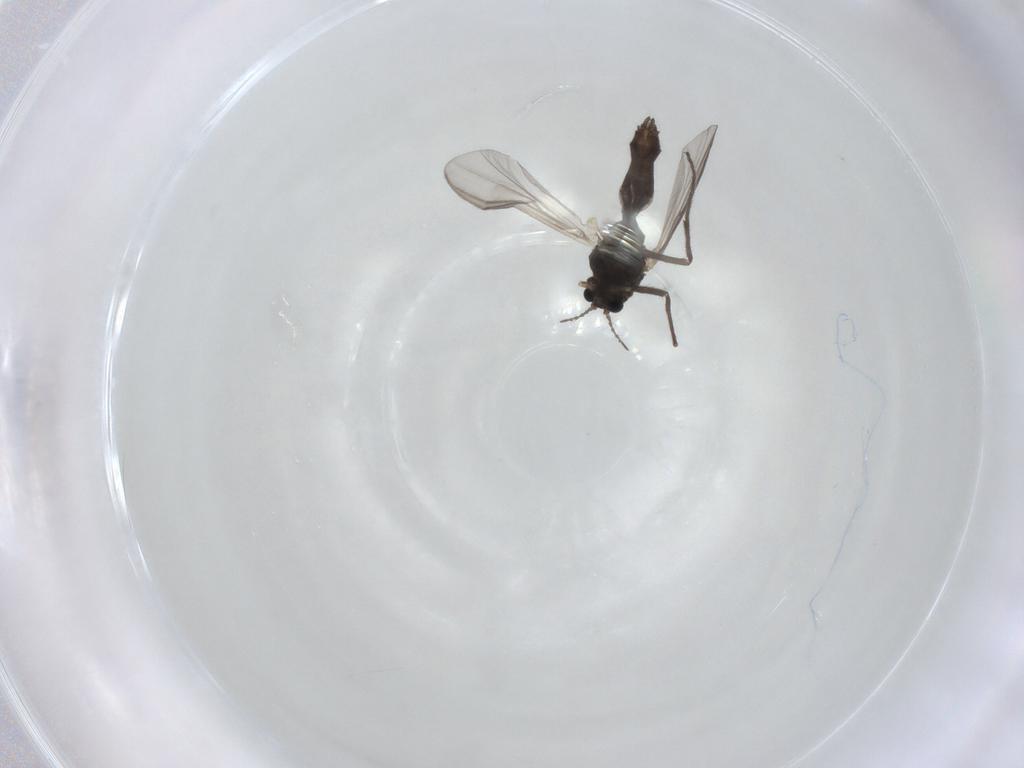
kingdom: Animalia
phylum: Arthropoda
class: Insecta
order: Diptera
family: Chironomidae
